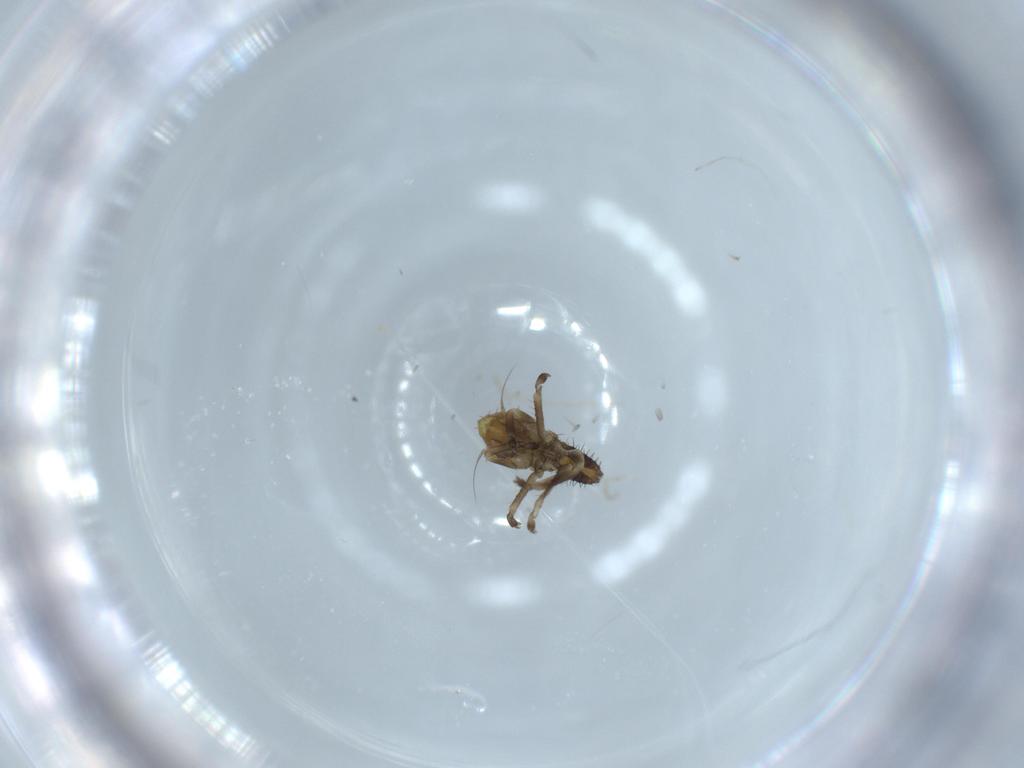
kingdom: Animalia
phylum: Arthropoda
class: Insecta
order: Hemiptera
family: Cicadellidae
